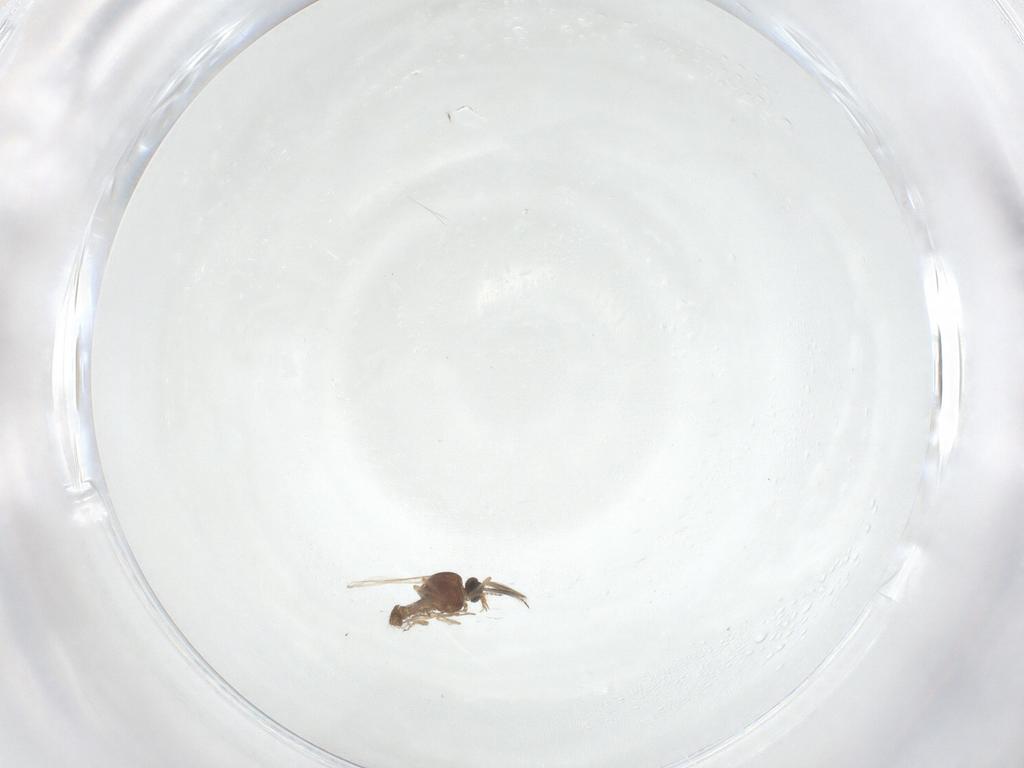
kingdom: Animalia
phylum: Arthropoda
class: Insecta
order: Diptera
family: Ceratopogonidae
